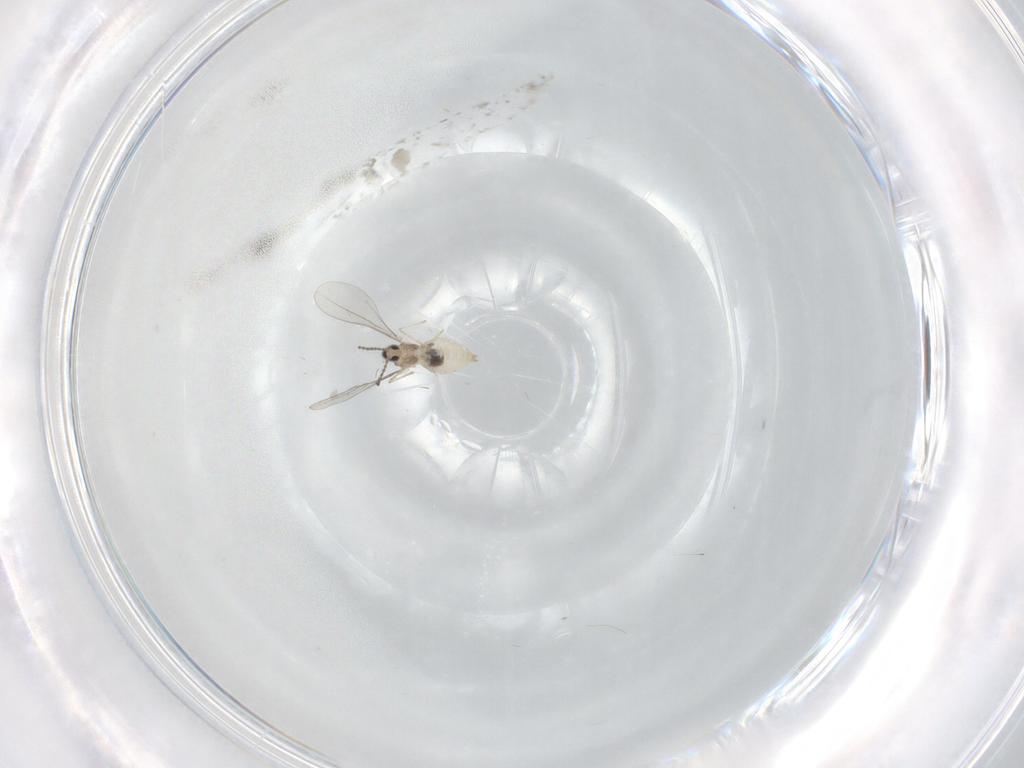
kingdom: Animalia
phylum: Arthropoda
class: Insecta
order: Diptera
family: Cecidomyiidae
